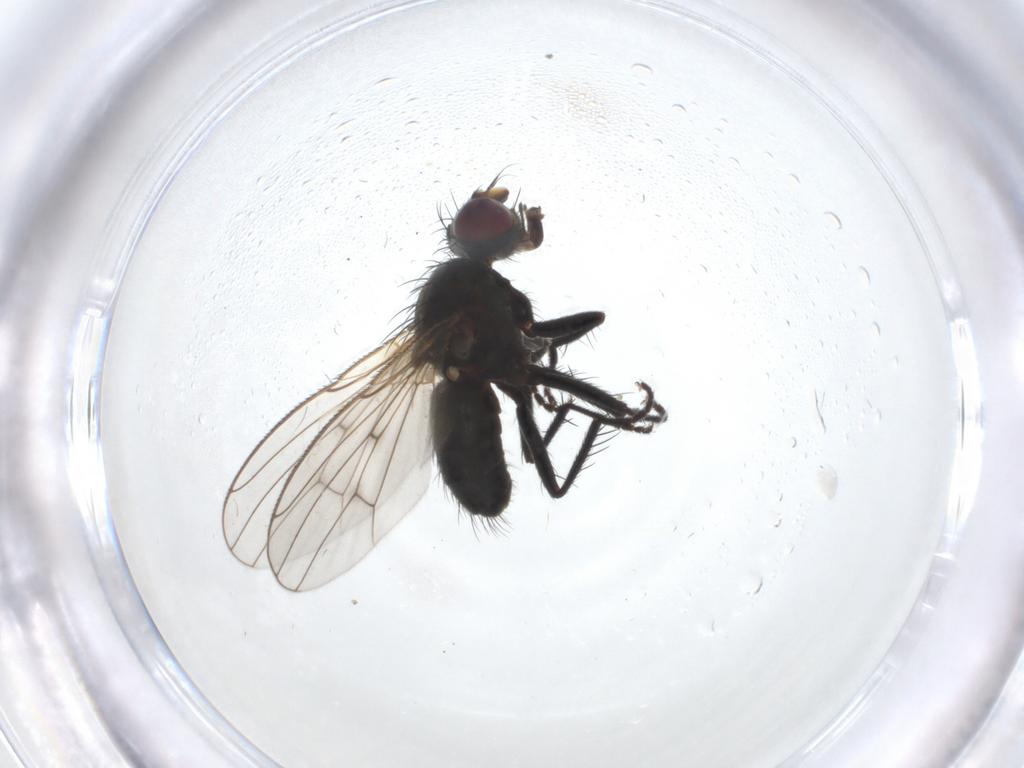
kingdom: Animalia
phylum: Arthropoda
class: Insecta
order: Diptera
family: Muscidae
